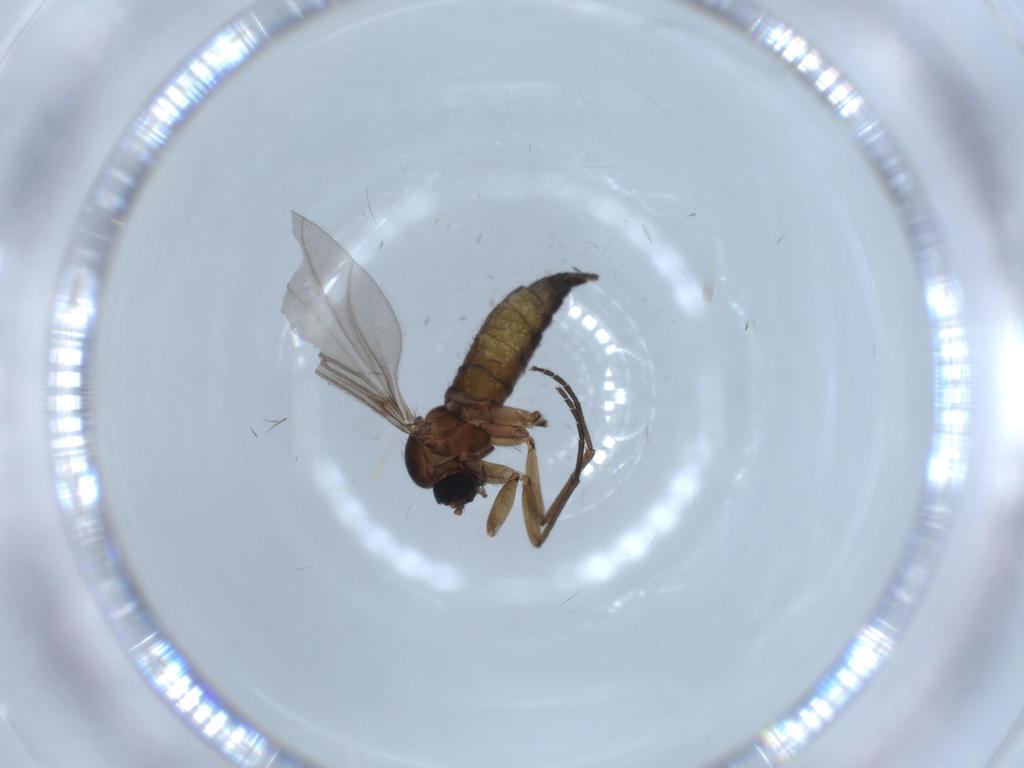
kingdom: Animalia
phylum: Arthropoda
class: Insecta
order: Diptera
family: Sciaridae
